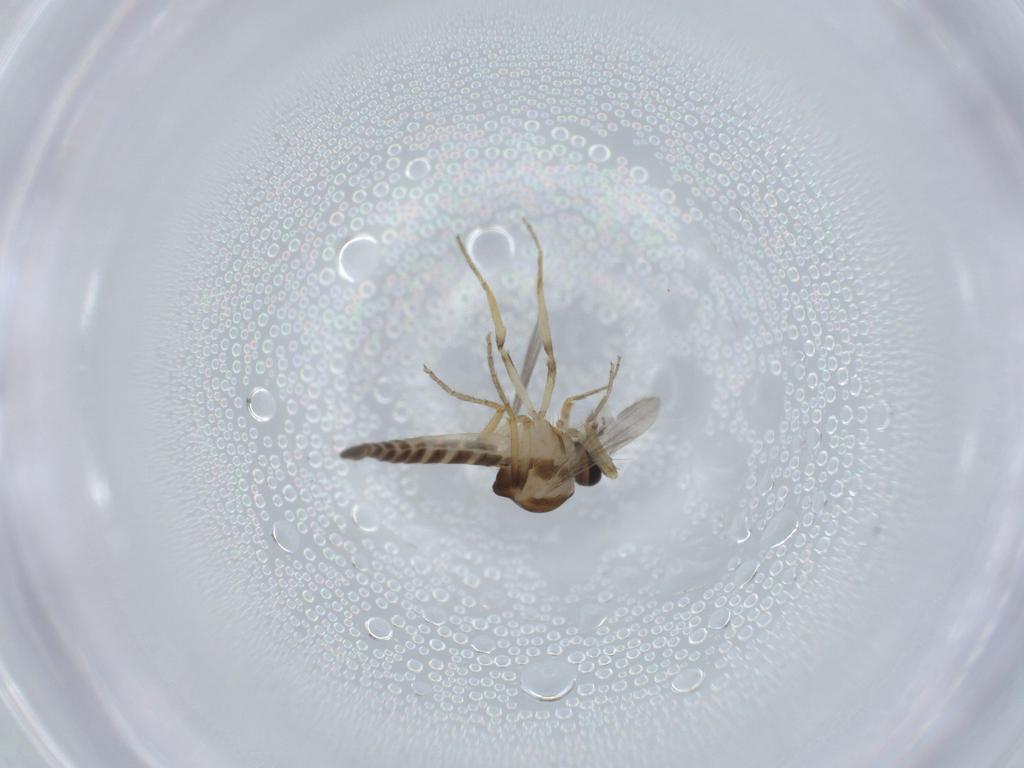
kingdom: Animalia
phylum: Arthropoda
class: Insecta
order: Diptera
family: Ceratopogonidae
